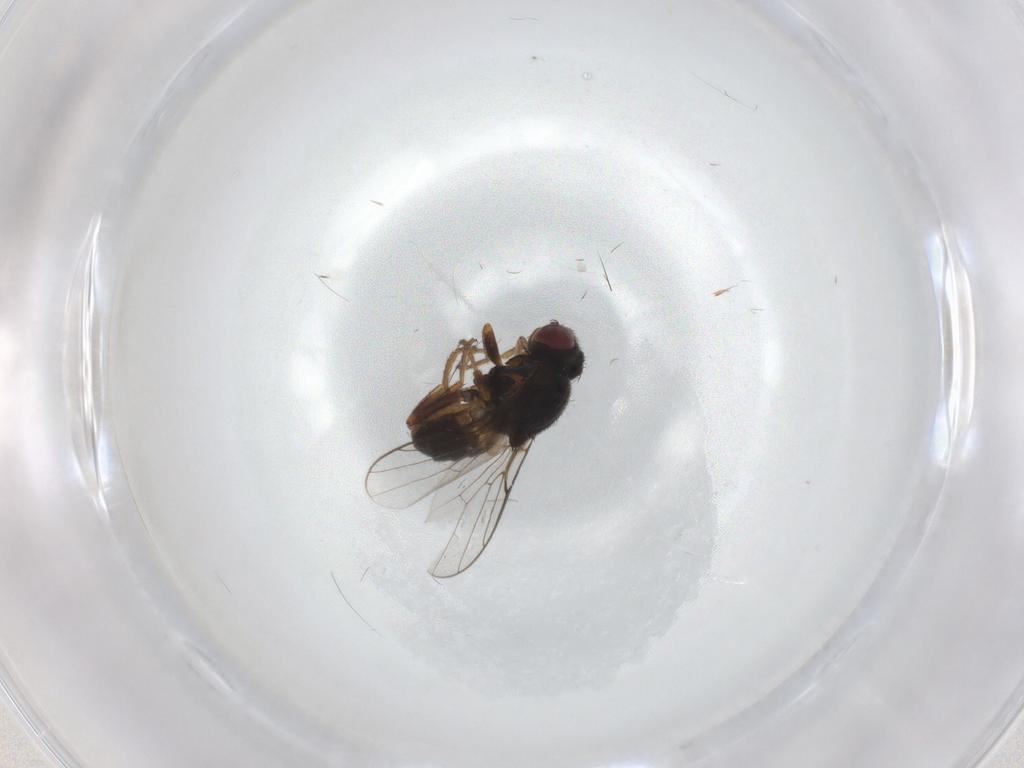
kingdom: Animalia
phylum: Arthropoda
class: Insecta
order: Diptera
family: Chloropidae
